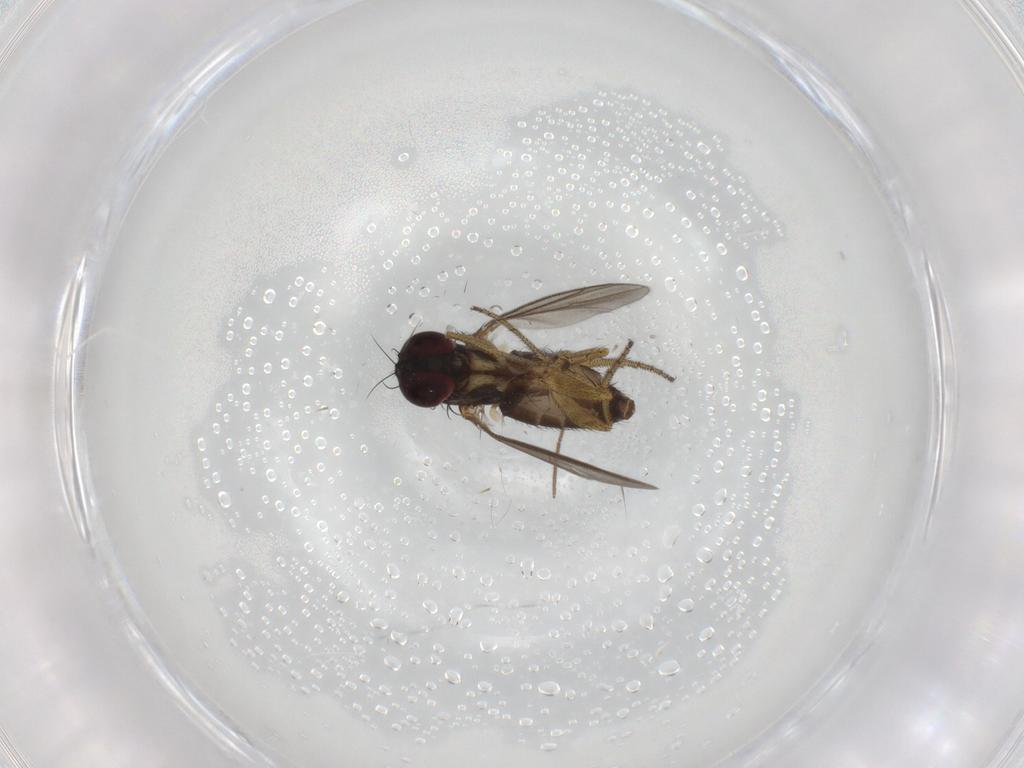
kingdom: Animalia
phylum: Arthropoda
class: Insecta
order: Diptera
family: Dolichopodidae
